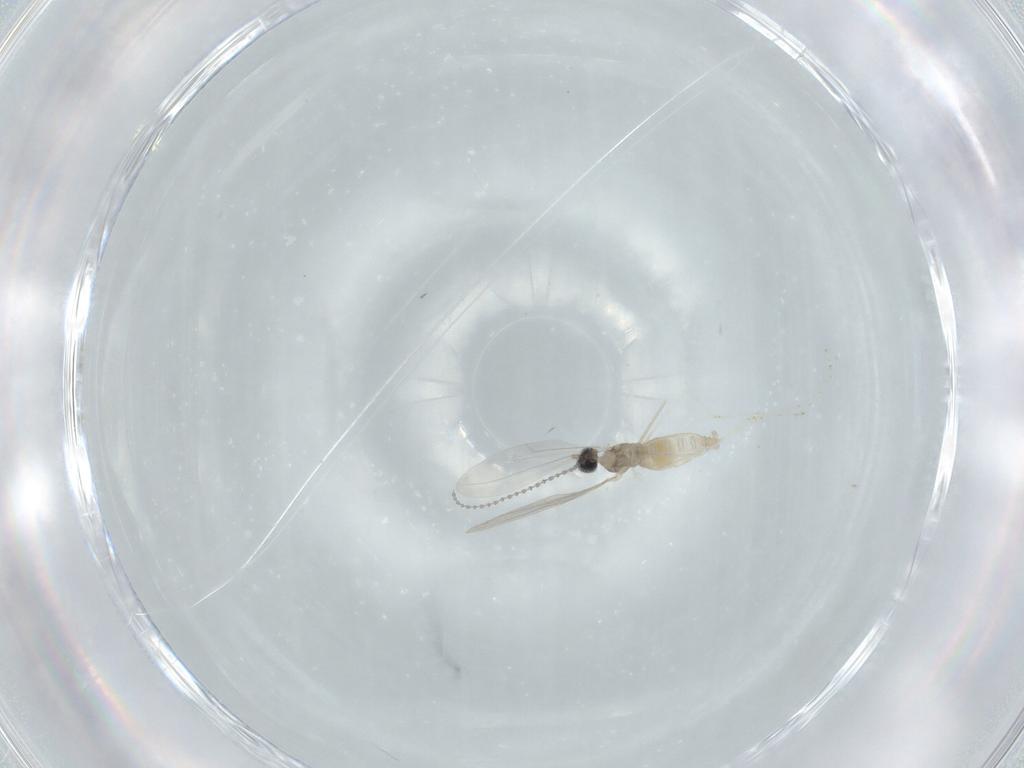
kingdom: Animalia
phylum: Arthropoda
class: Insecta
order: Diptera
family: Cecidomyiidae
